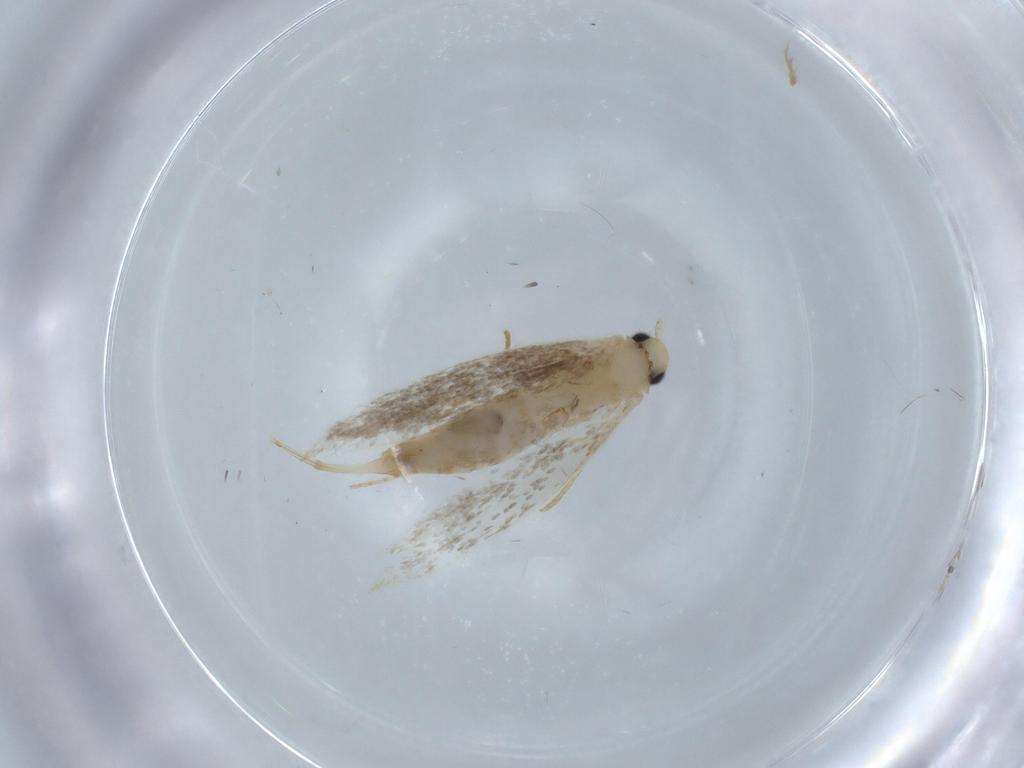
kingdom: Animalia
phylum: Arthropoda
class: Insecta
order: Lepidoptera
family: Tineidae
